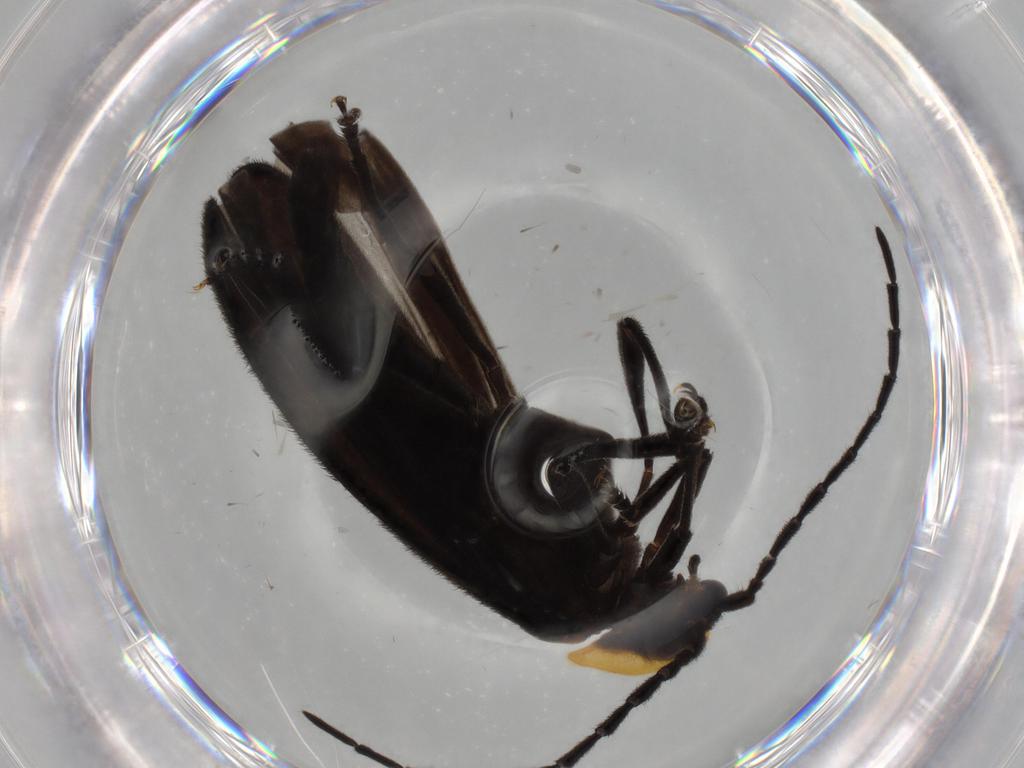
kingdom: Animalia
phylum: Arthropoda
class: Insecta
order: Coleoptera
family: Lycidae
